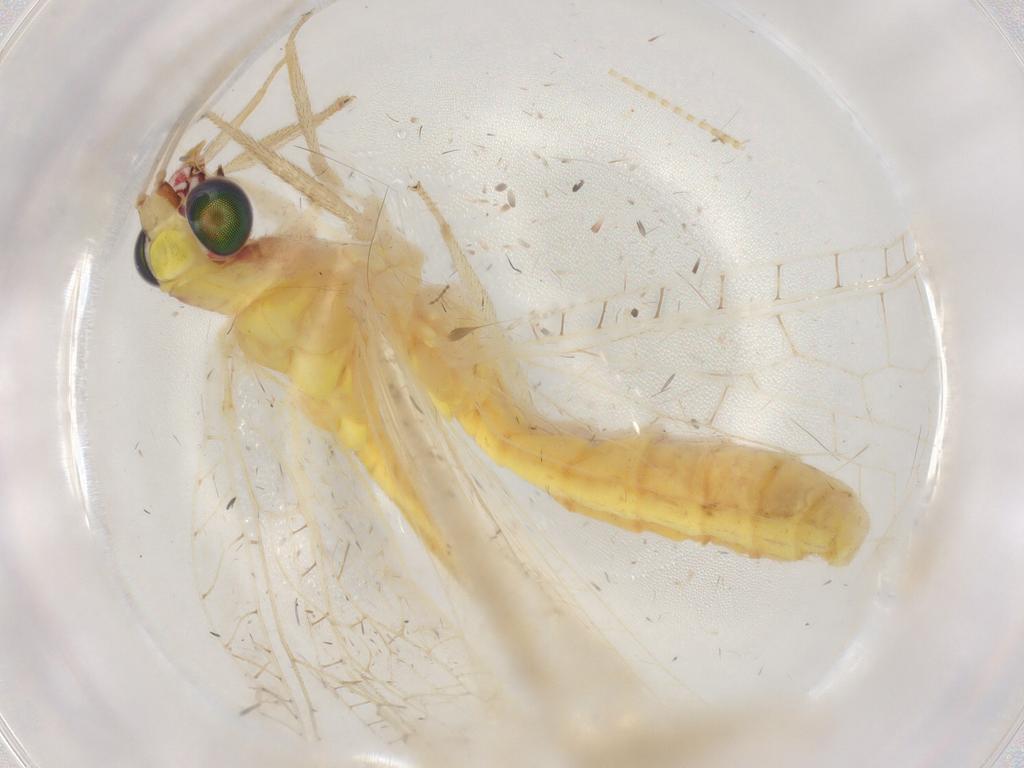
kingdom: Animalia
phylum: Arthropoda
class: Insecta
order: Neuroptera
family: Chrysopidae
